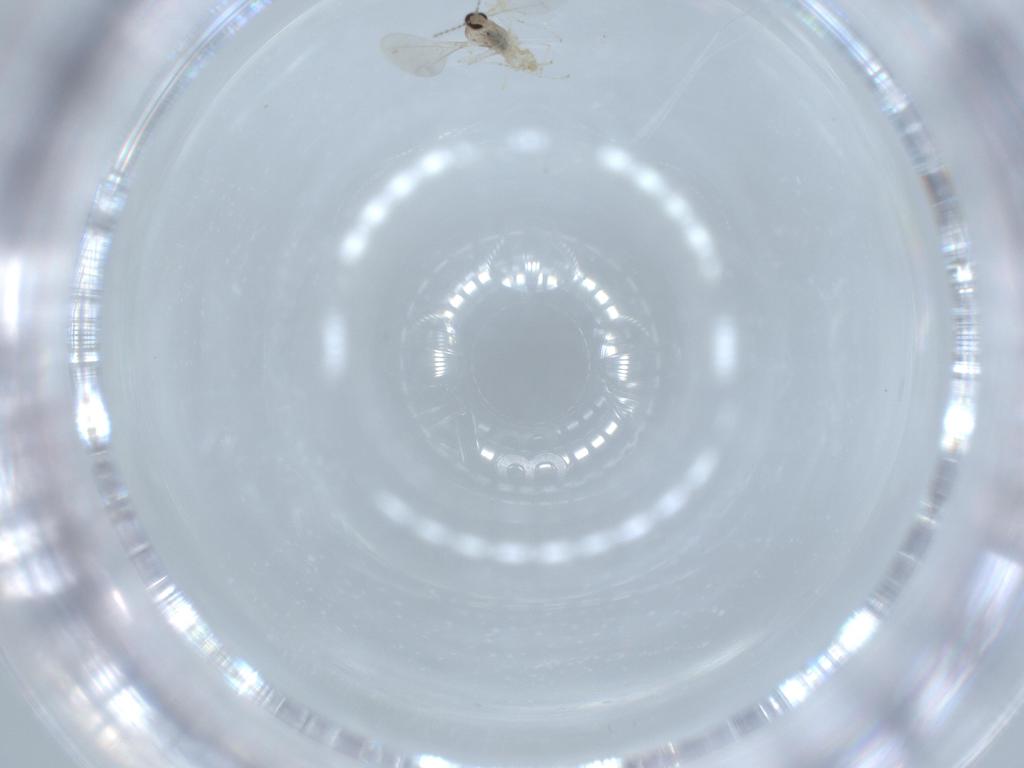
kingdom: Animalia
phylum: Arthropoda
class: Insecta
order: Diptera
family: Cecidomyiidae
